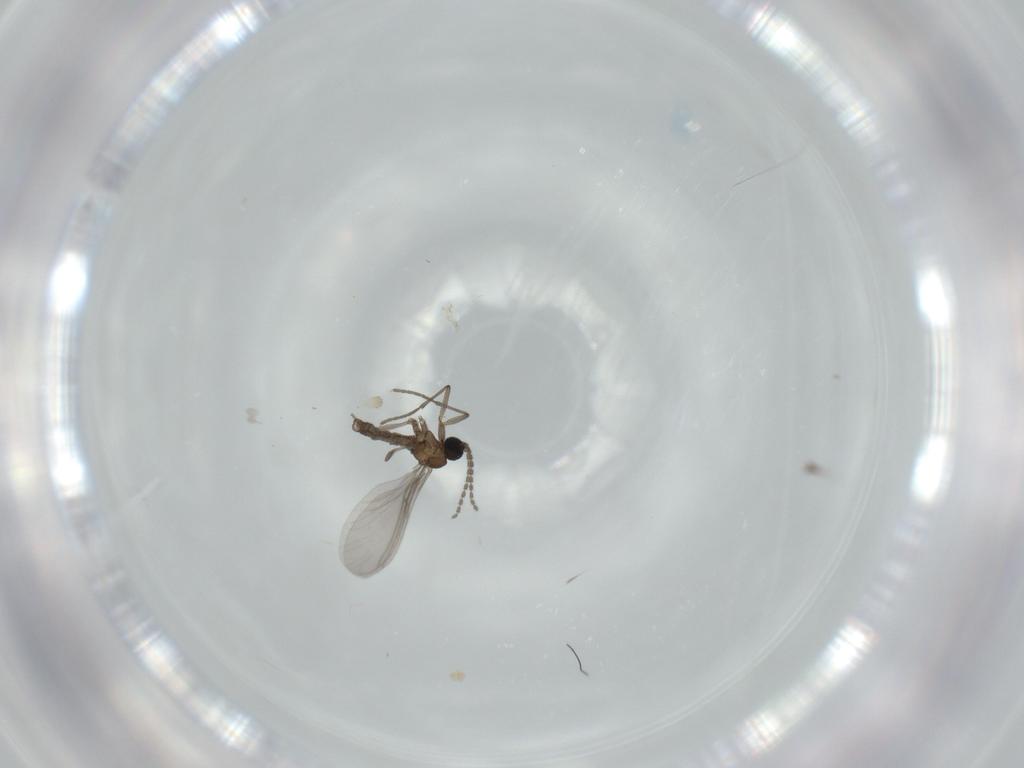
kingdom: Animalia
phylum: Arthropoda
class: Insecta
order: Diptera
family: Sciaridae
